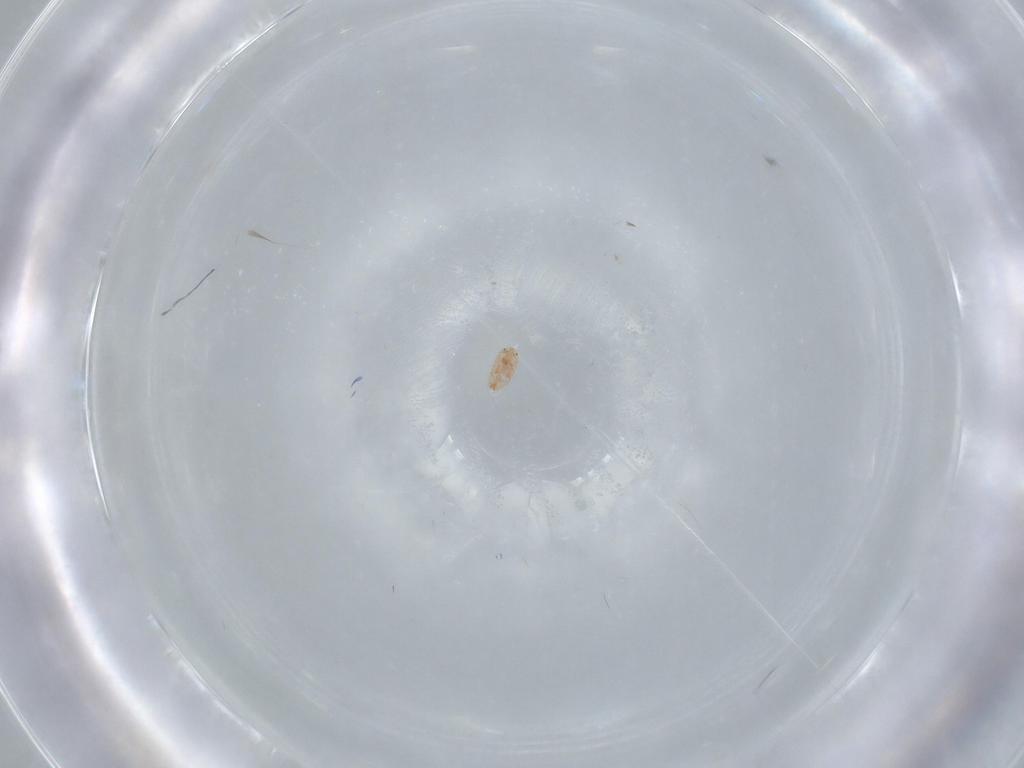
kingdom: Animalia
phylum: Arthropoda
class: Insecta
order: Hemiptera
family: Coccidae
